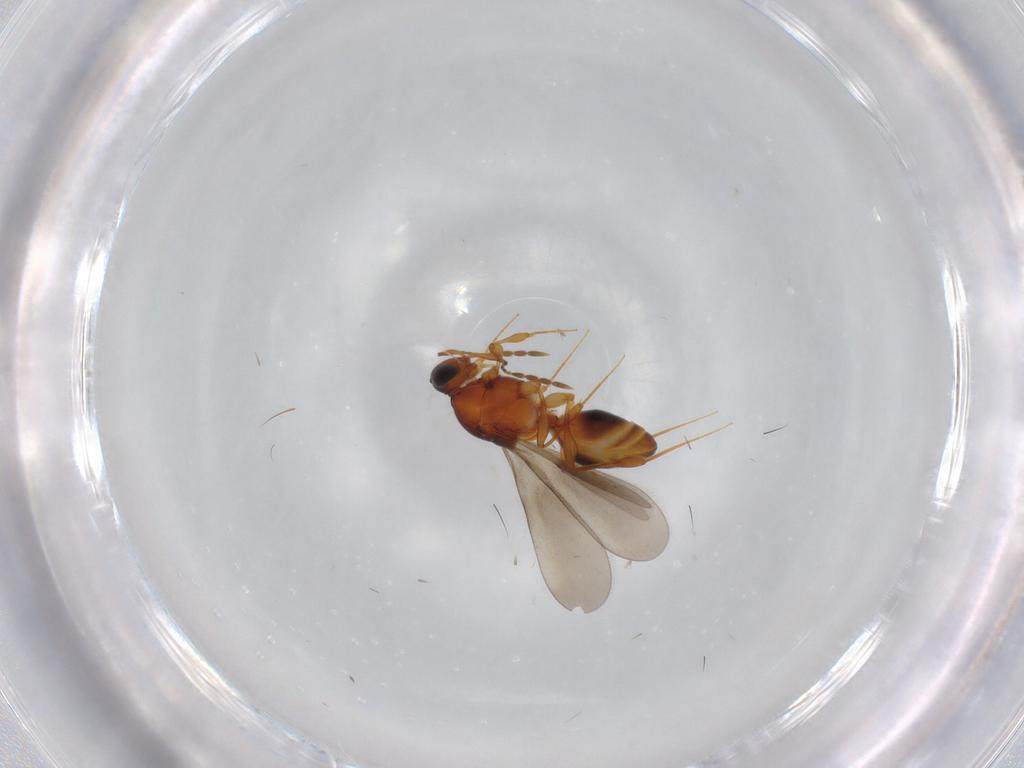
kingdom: Animalia
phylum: Arthropoda
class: Insecta
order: Hymenoptera
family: Platygastridae
